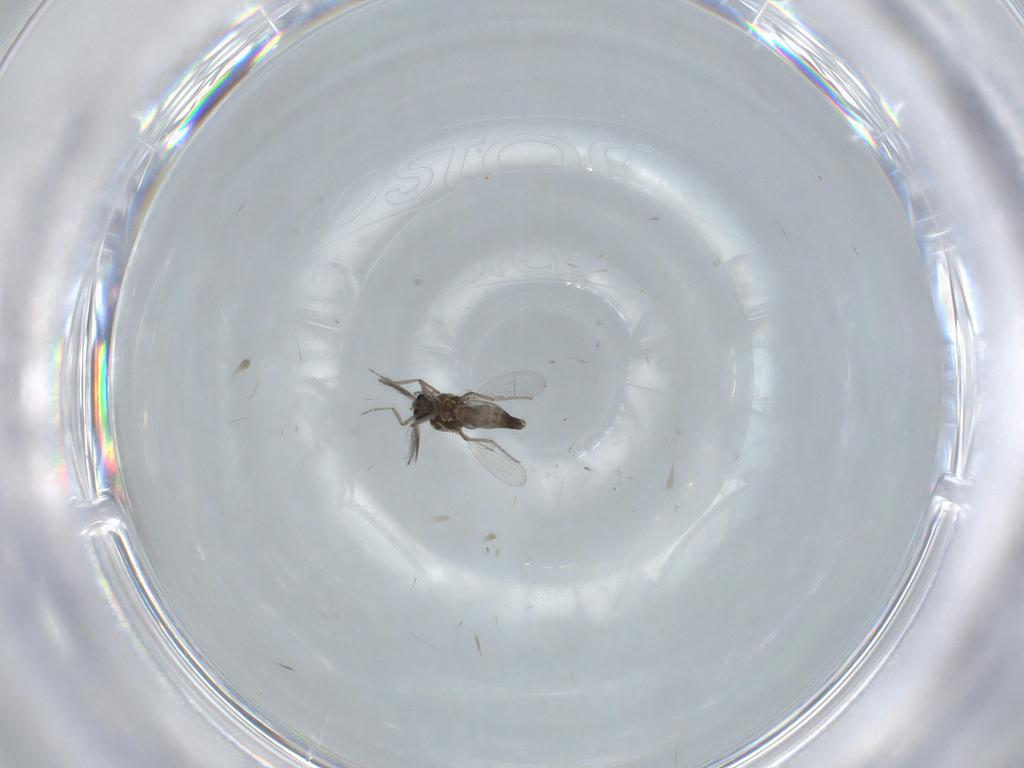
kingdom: Animalia
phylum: Arthropoda
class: Insecta
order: Diptera
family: Ceratopogonidae
